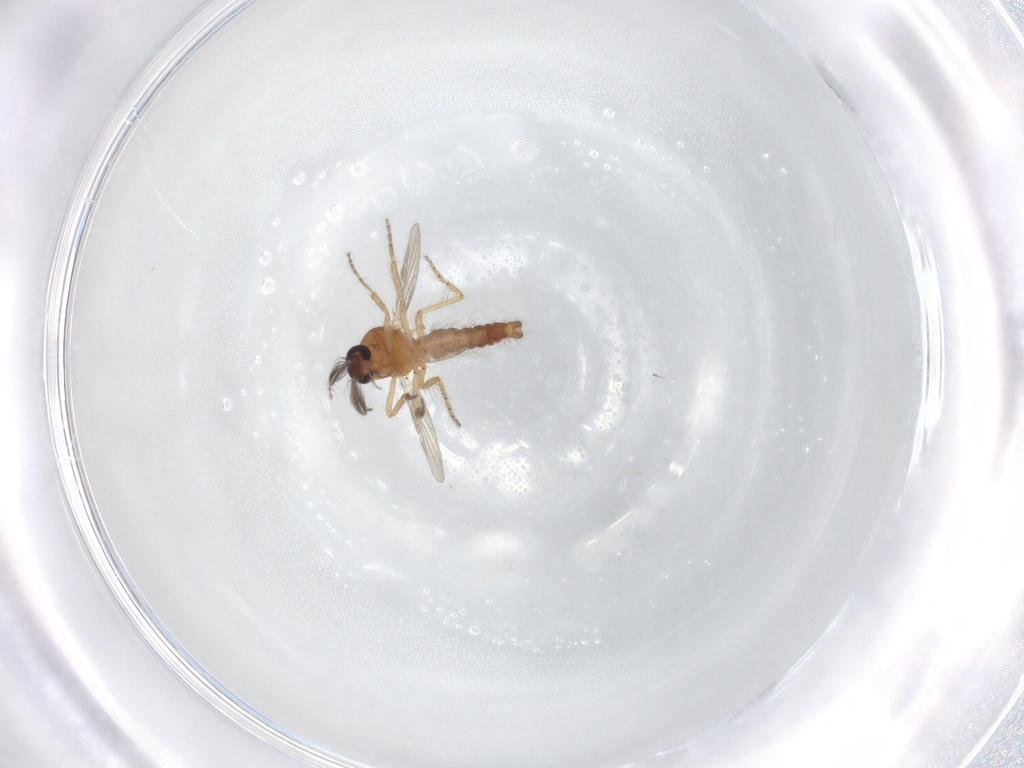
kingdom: Animalia
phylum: Arthropoda
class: Insecta
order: Diptera
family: Ceratopogonidae
